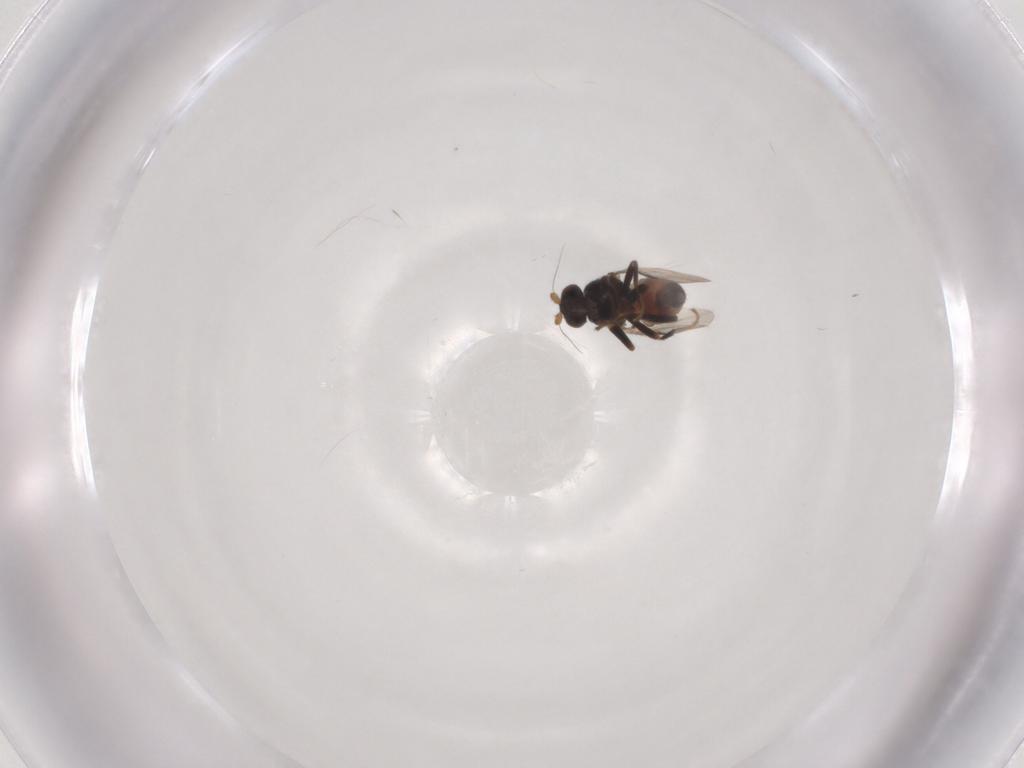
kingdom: Animalia
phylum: Arthropoda
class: Insecta
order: Diptera
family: Sphaeroceridae
